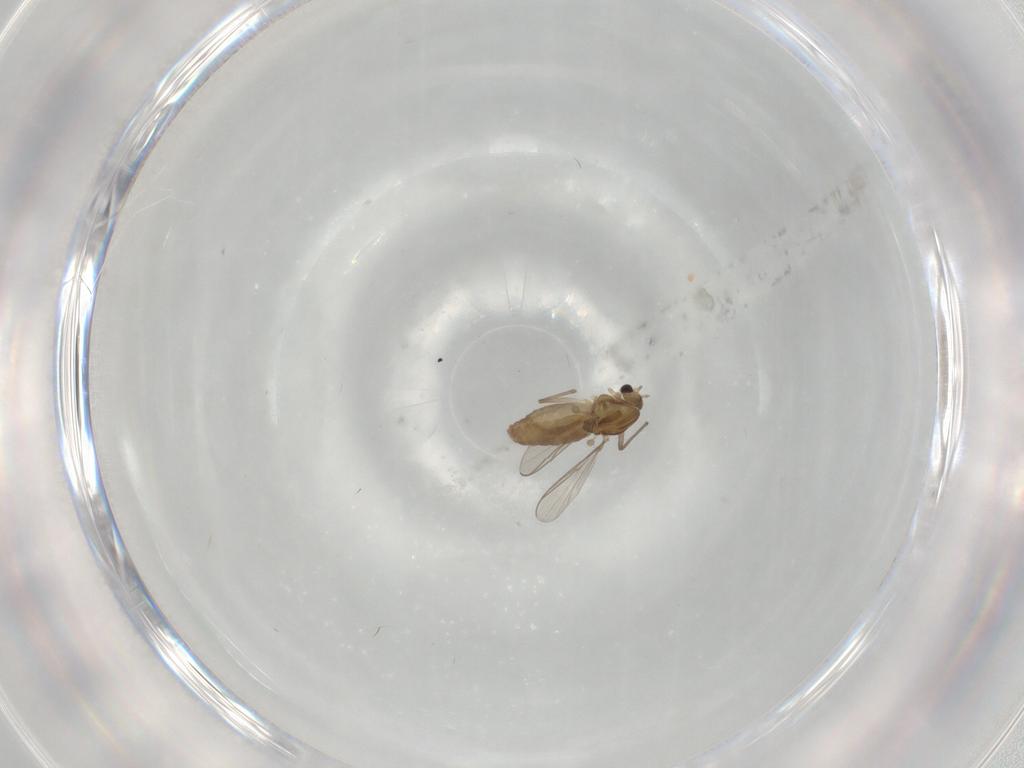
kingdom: Animalia
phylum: Arthropoda
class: Insecta
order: Diptera
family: Chironomidae
